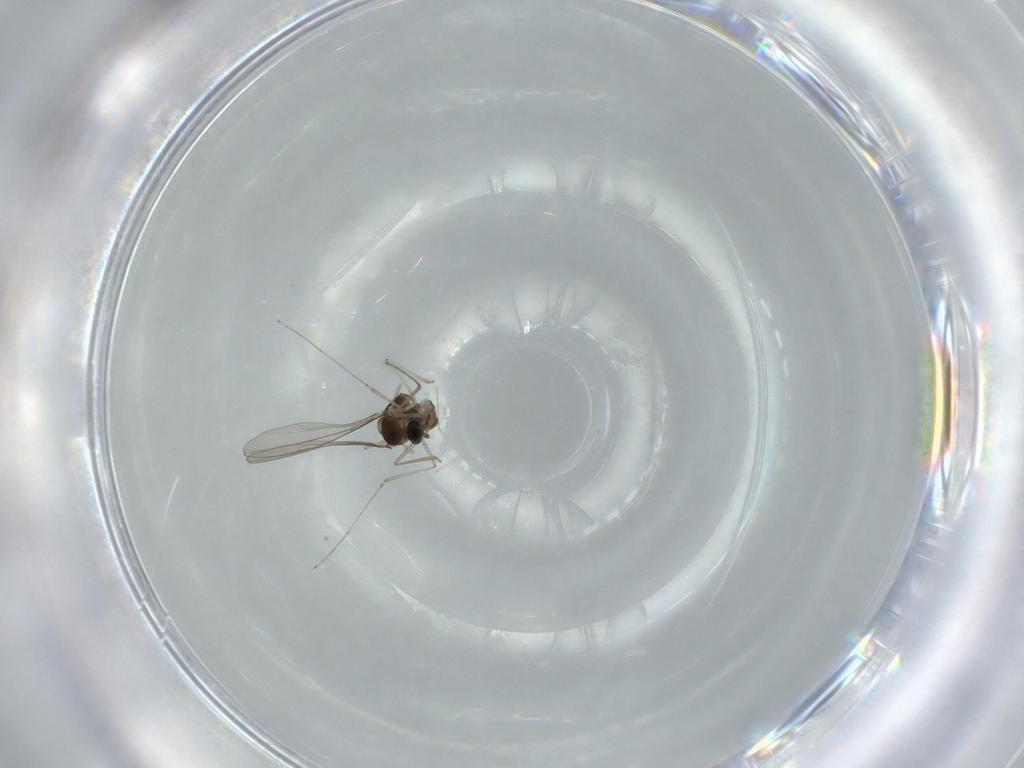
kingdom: Animalia
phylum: Arthropoda
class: Insecta
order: Diptera
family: Cecidomyiidae
